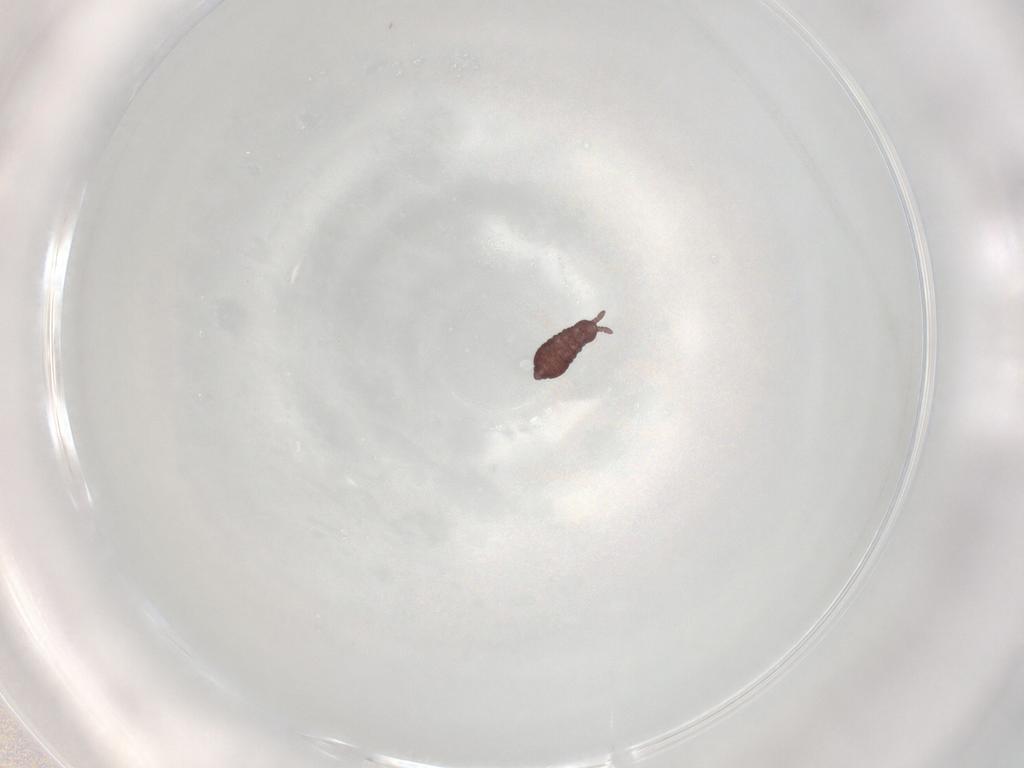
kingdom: Animalia
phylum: Arthropoda
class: Collembola
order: Poduromorpha
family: Hypogastruridae
